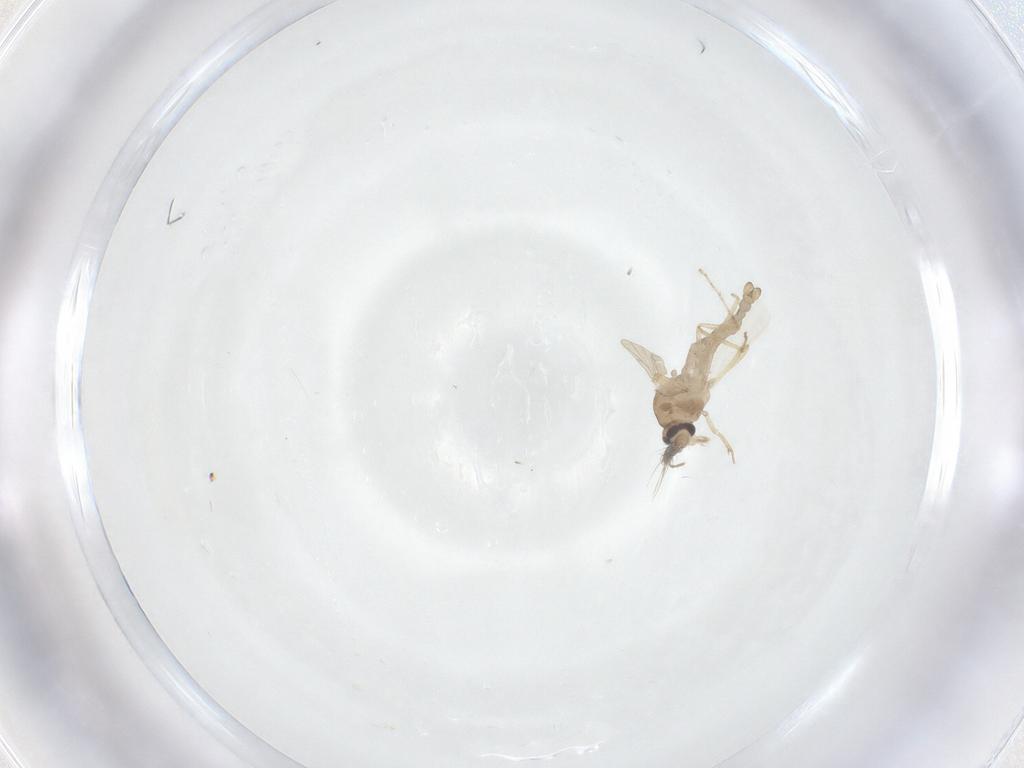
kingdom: Animalia
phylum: Arthropoda
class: Insecta
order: Diptera
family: Ceratopogonidae
